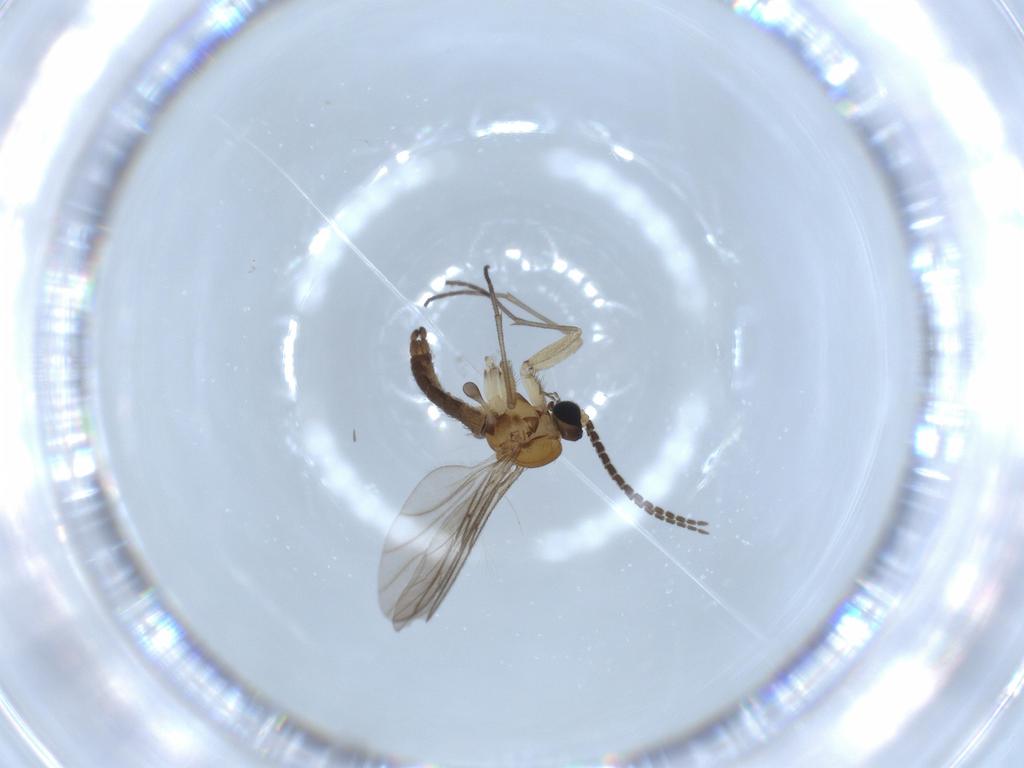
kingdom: Animalia
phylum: Arthropoda
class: Insecta
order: Diptera
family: Sciaridae
